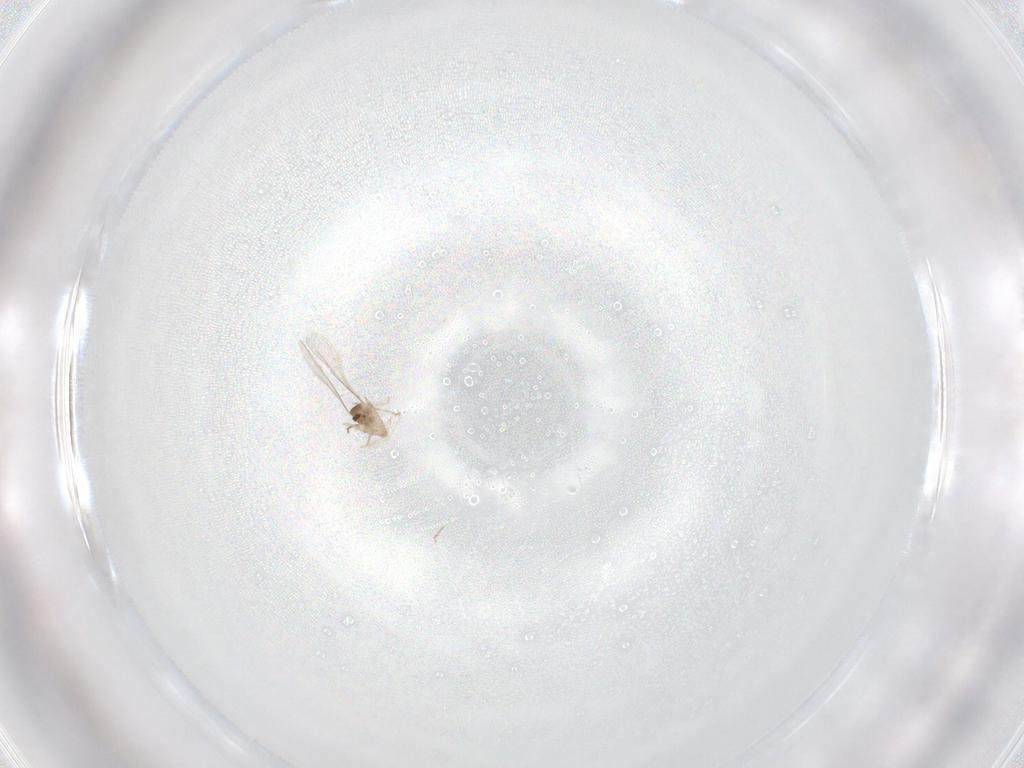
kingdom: Animalia
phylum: Arthropoda
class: Insecta
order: Diptera
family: Cecidomyiidae
